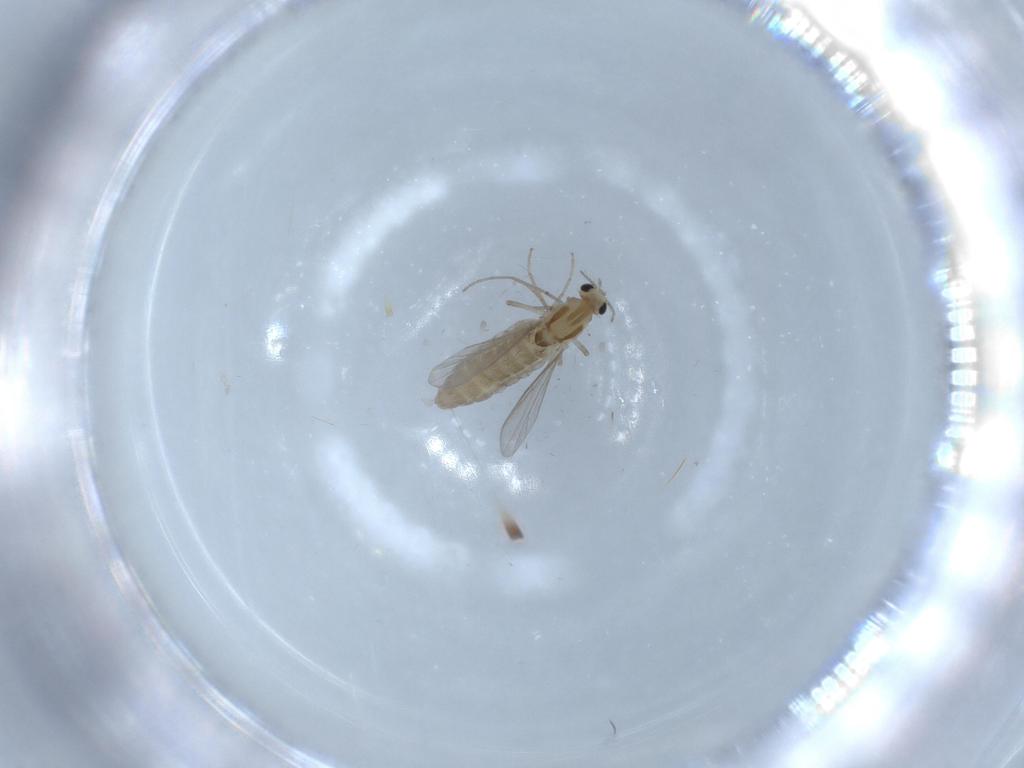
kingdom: Animalia
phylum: Arthropoda
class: Insecta
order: Diptera
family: Chironomidae
